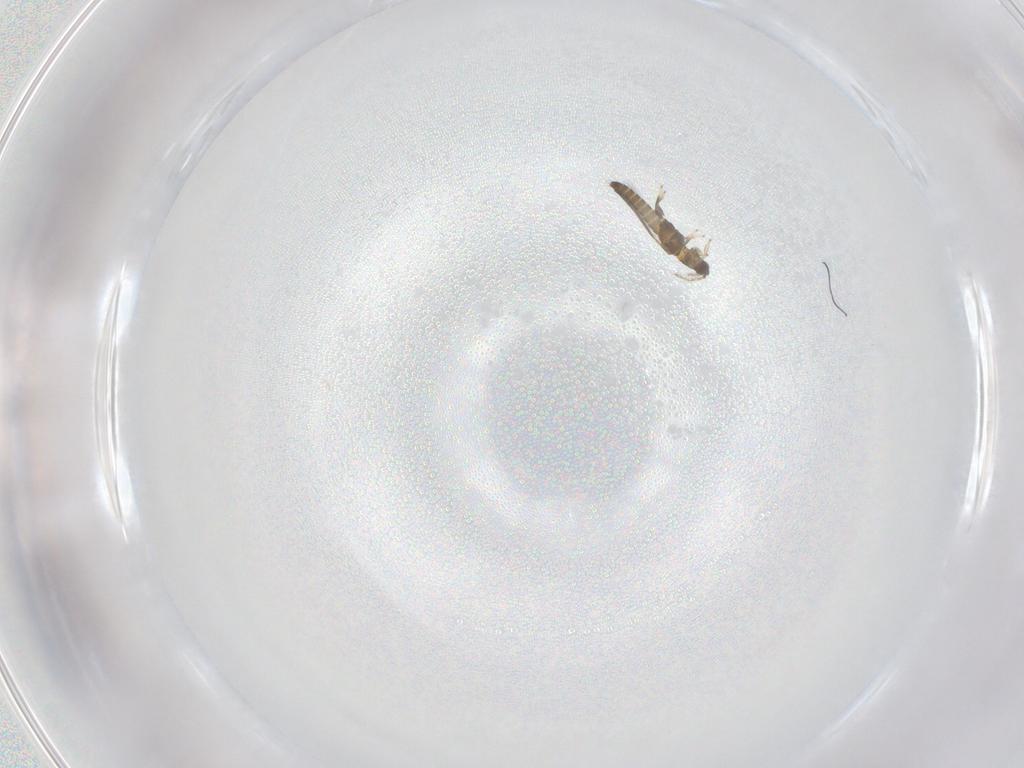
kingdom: Animalia
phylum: Arthropoda
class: Insecta
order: Thysanoptera
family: Thripidae
